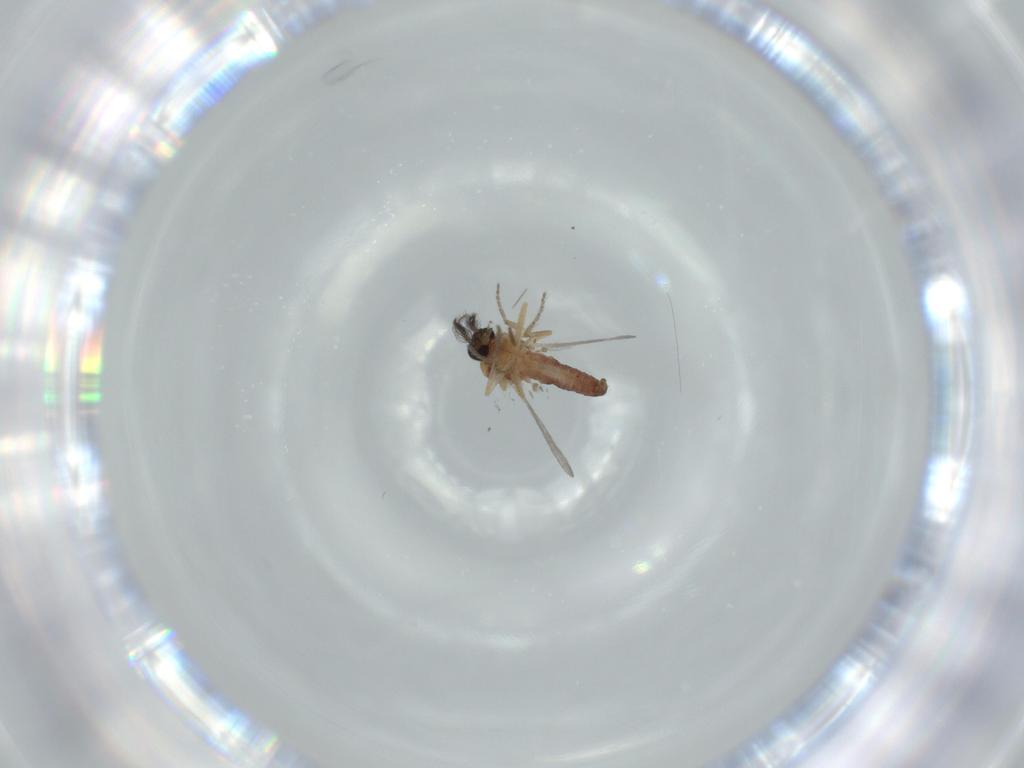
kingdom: Animalia
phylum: Arthropoda
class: Insecta
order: Diptera
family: Ceratopogonidae
